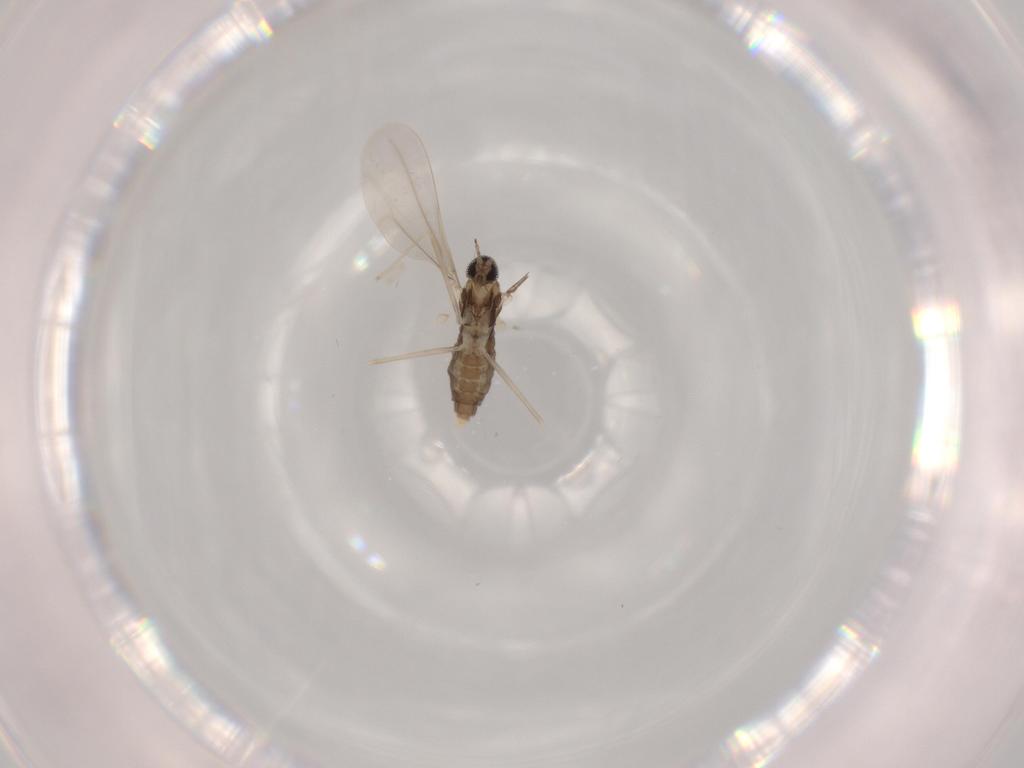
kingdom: Animalia
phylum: Arthropoda
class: Insecta
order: Diptera
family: Cecidomyiidae
